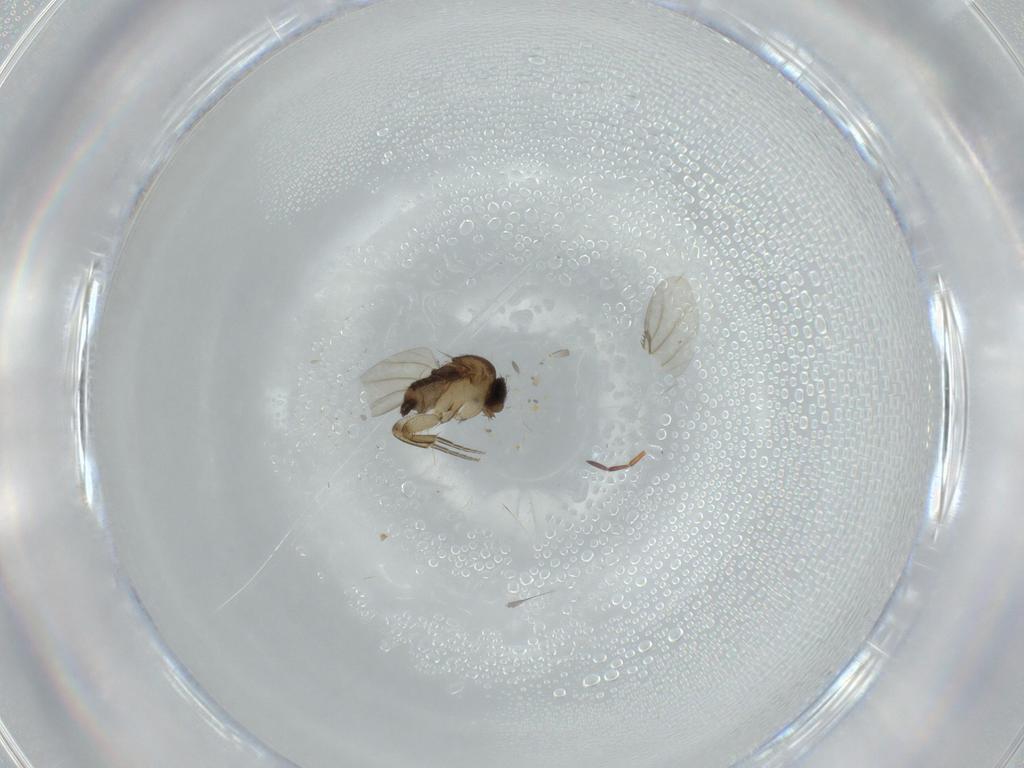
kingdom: Animalia
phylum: Arthropoda
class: Insecta
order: Diptera
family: Phoridae
